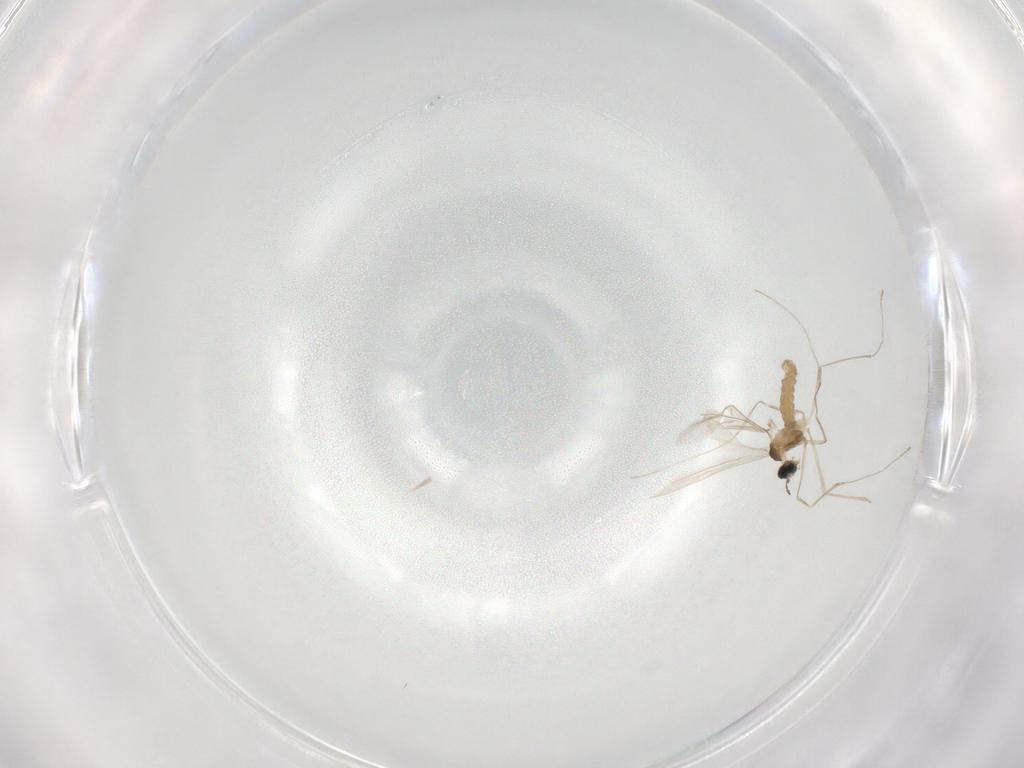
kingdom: Animalia
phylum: Arthropoda
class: Insecta
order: Diptera
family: Cecidomyiidae
